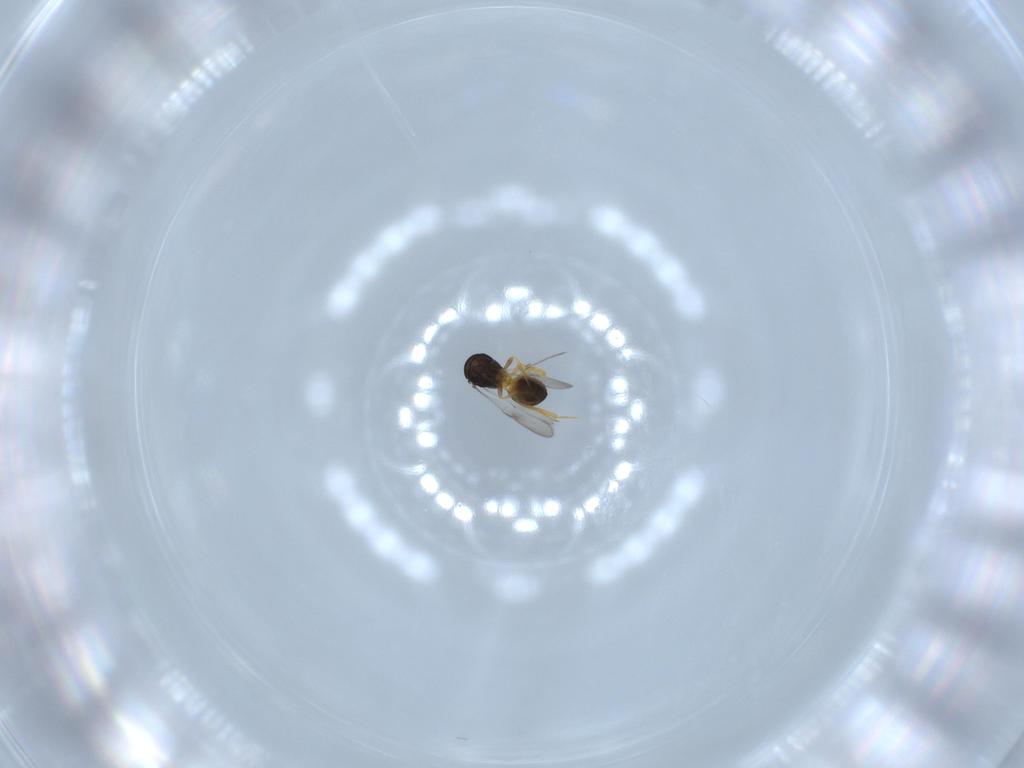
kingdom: Animalia
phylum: Arthropoda
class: Insecta
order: Hymenoptera
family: Scelionidae
